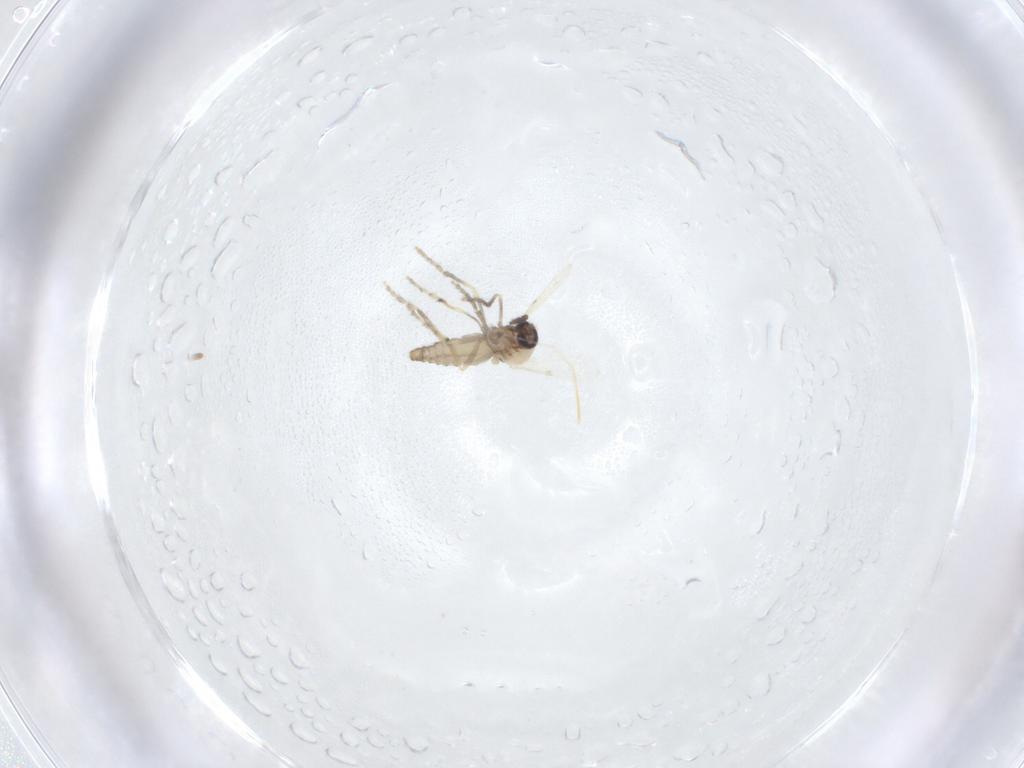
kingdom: Animalia
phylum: Arthropoda
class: Insecta
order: Diptera
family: Ceratopogonidae
